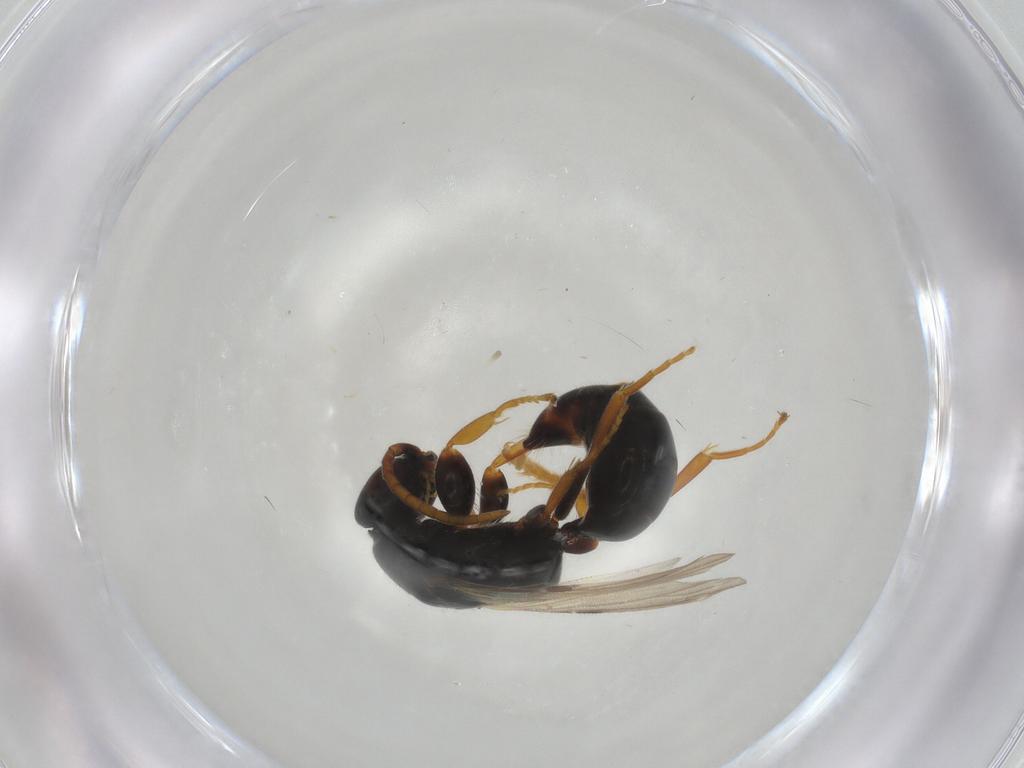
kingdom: Animalia
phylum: Arthropoda
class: Insecta
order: Hymenoptera
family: Bethylidae
